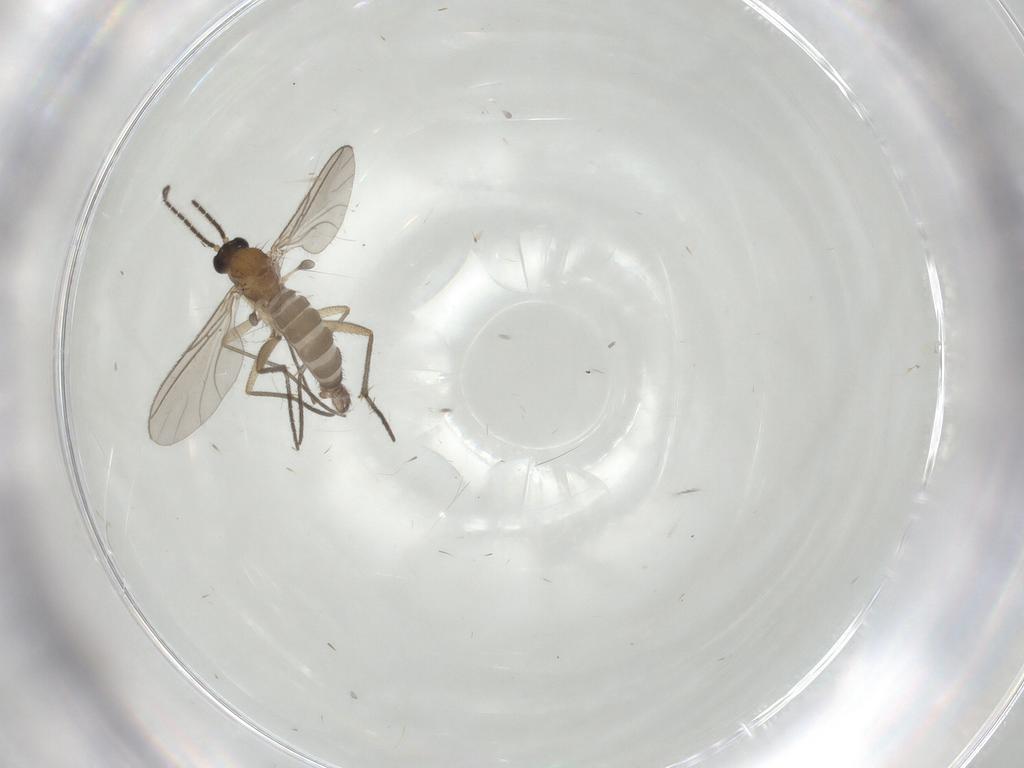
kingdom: Animalia
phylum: Arthropoda
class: Insecta
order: Diptera
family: Sciaridae
